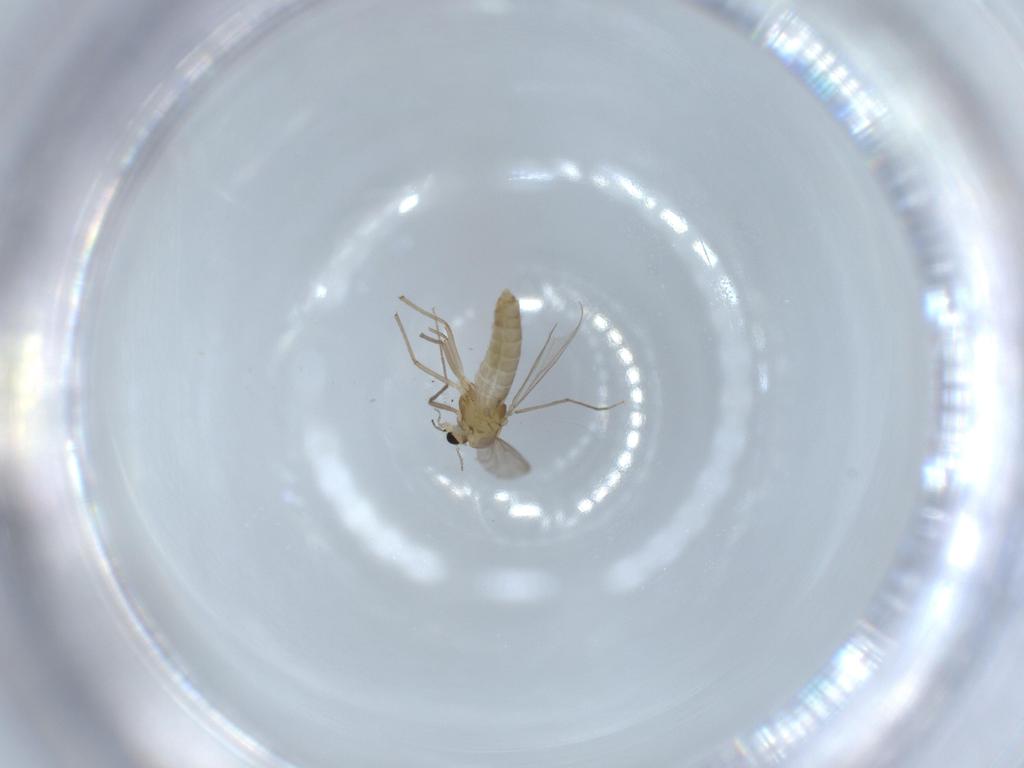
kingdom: Animalia
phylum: Arthropoda
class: Insecta
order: Diptera
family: Chironomidae
